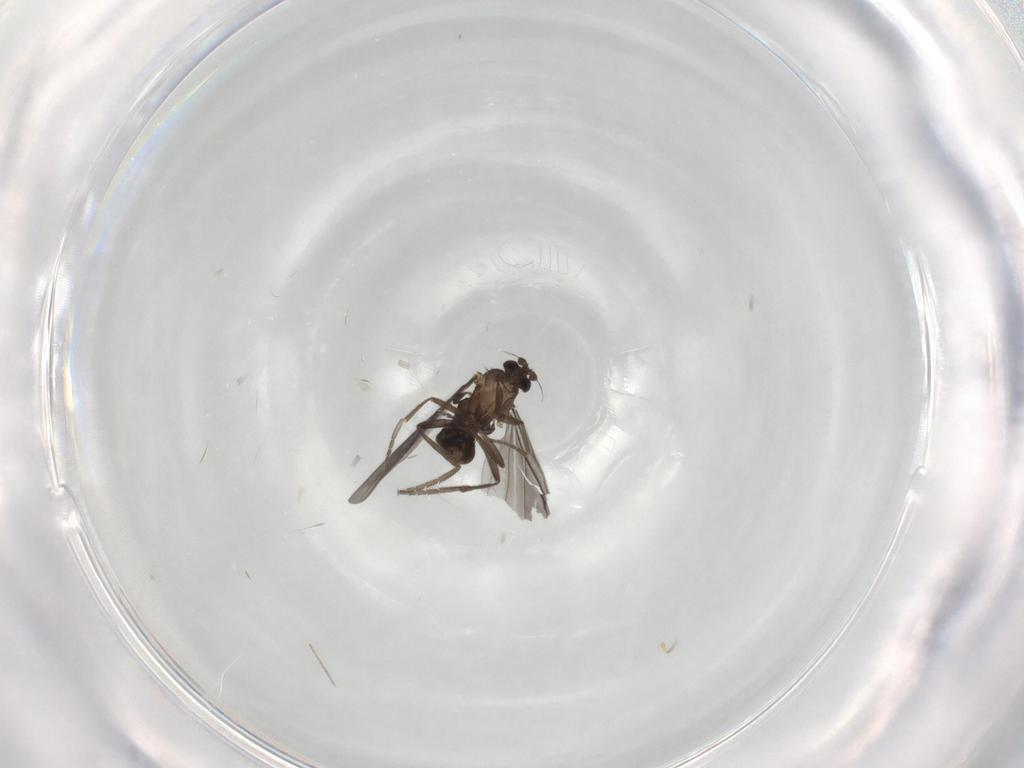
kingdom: Animalia
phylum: Arthropoda
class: Insecta
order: Diptera
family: Phoridae
